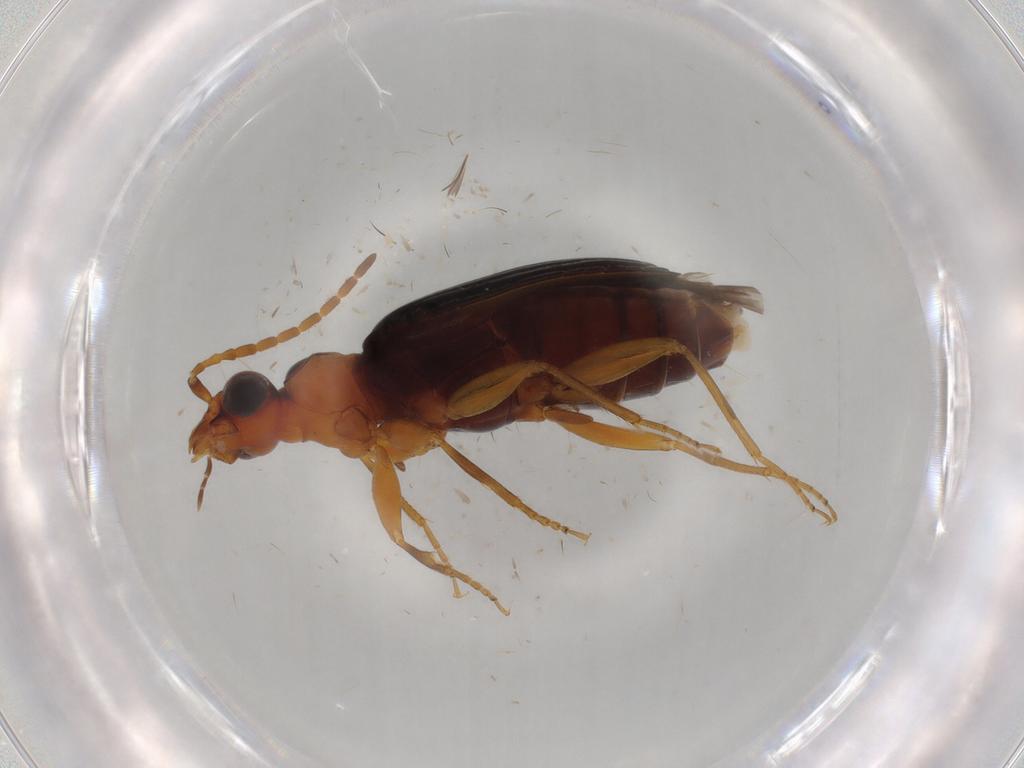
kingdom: Animalia
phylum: Arthropoda
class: Insecta
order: Coleoptera
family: Carabidae
